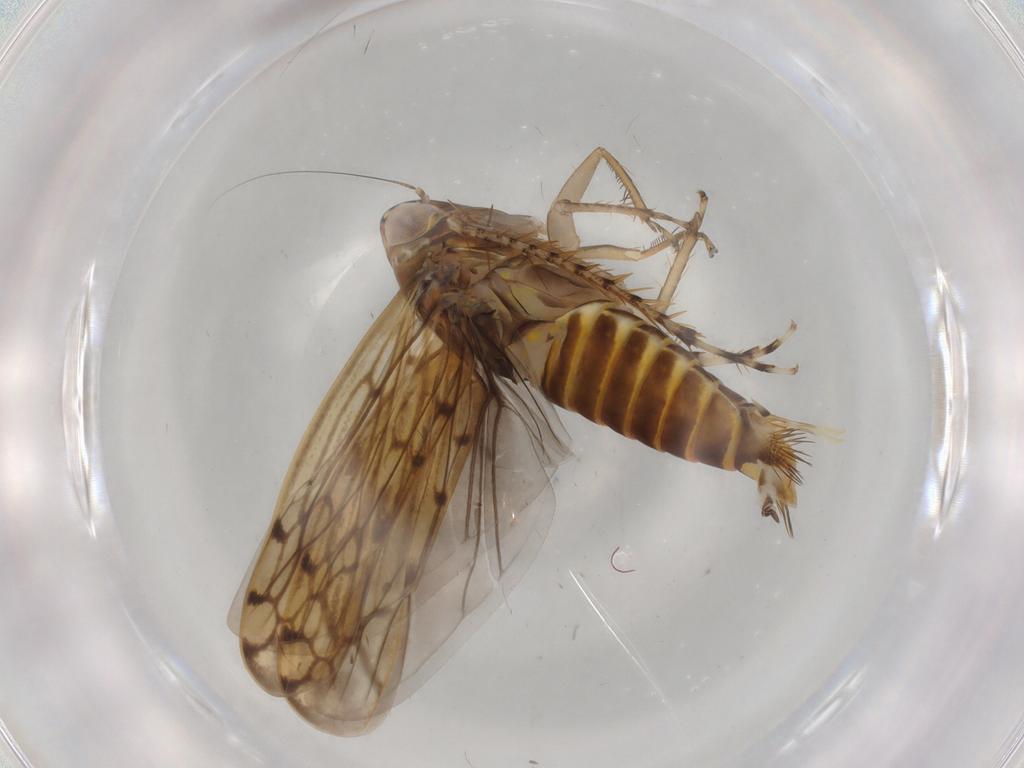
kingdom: Animalia
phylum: Arthropoda
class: Insecta
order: Hemiptera
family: Cicadellidae
